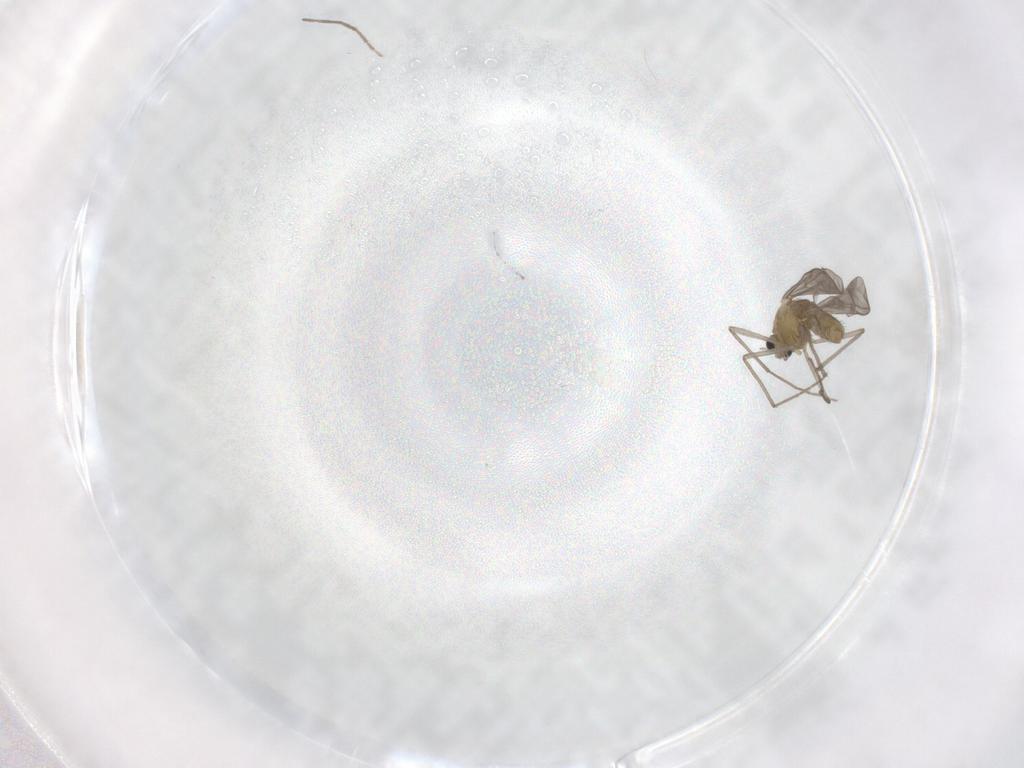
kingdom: Animalia
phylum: Arthropoda
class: Insecta
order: Diptera
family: Chironomidae
